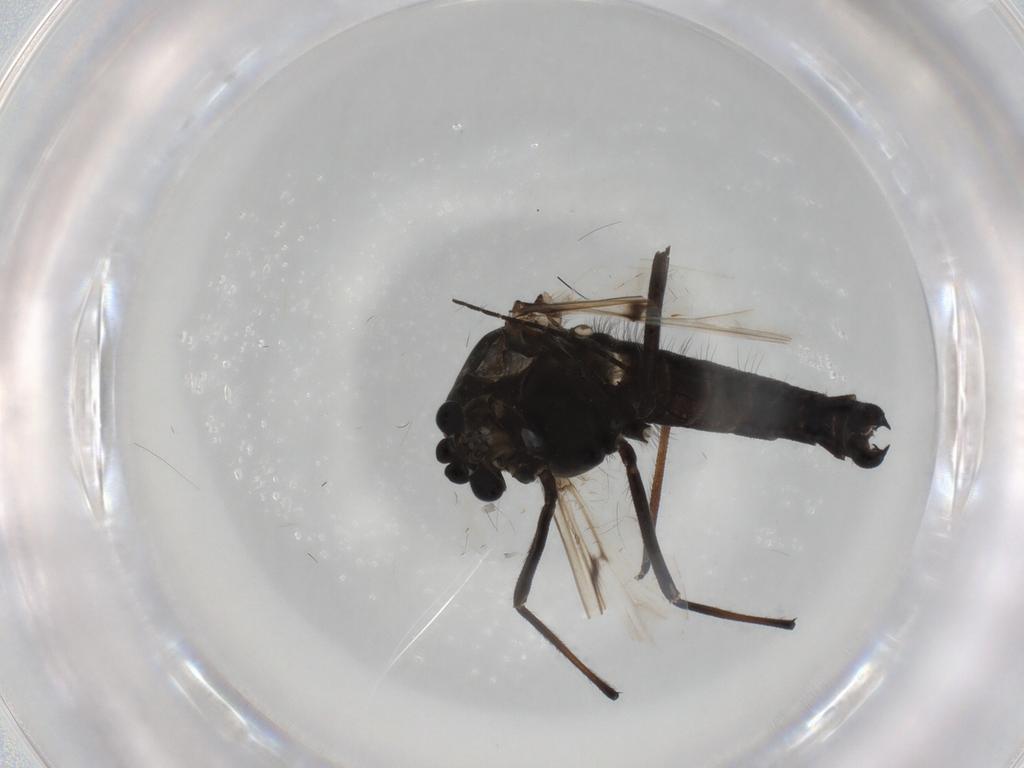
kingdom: Animalia
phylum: Arthropoda
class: Insecta
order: Diptera
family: Chironomidae
